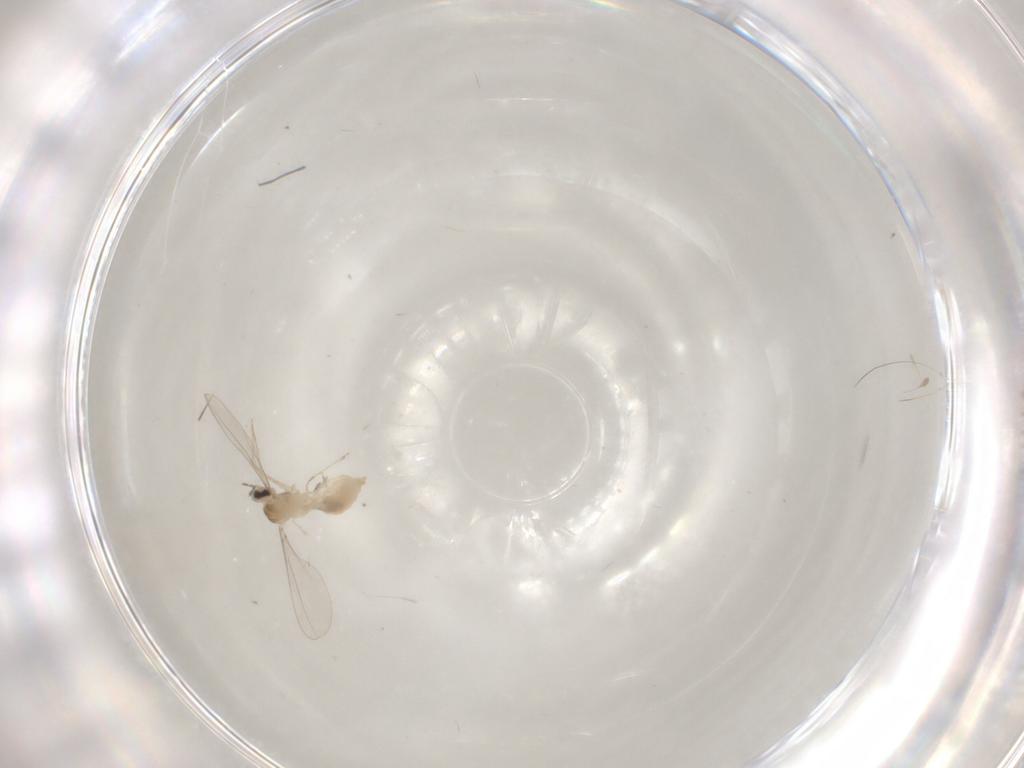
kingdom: Animalia
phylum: Arthropoda
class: Insecta
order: Diptera
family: Cecidomyiidae
